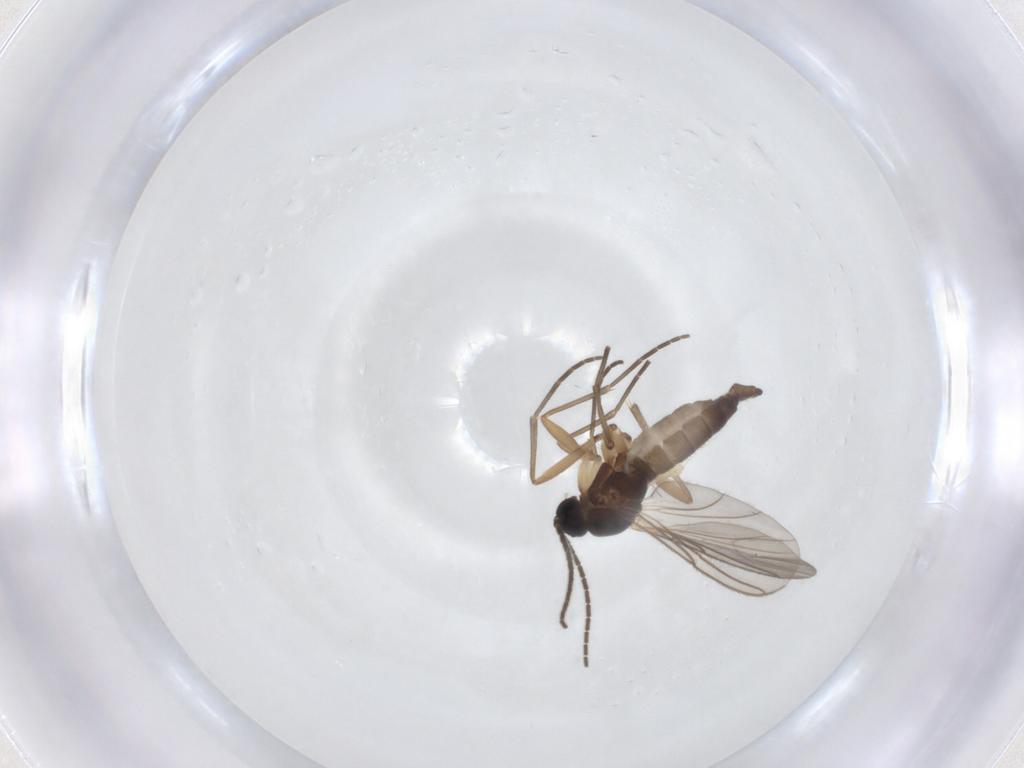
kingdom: Animalia
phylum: Arthropoda
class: Insecta
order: Diptera
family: Sciaridae
